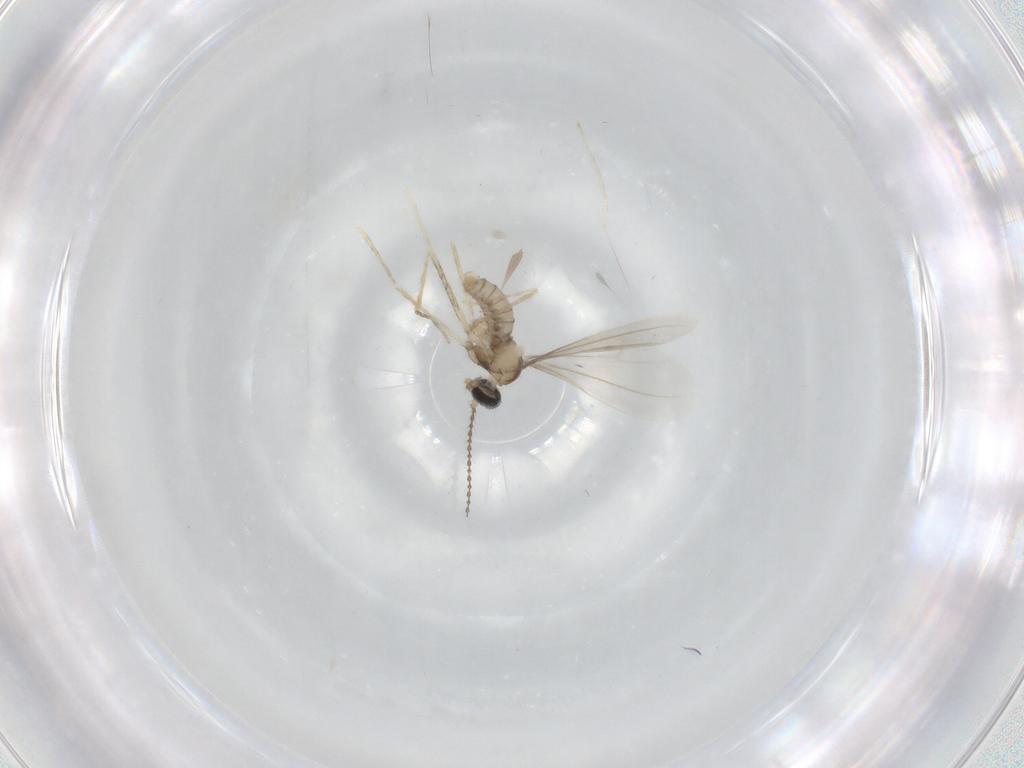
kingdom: Animalia
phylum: Arthropoda
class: Insecta
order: Diptera
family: Cecidomyiidae
